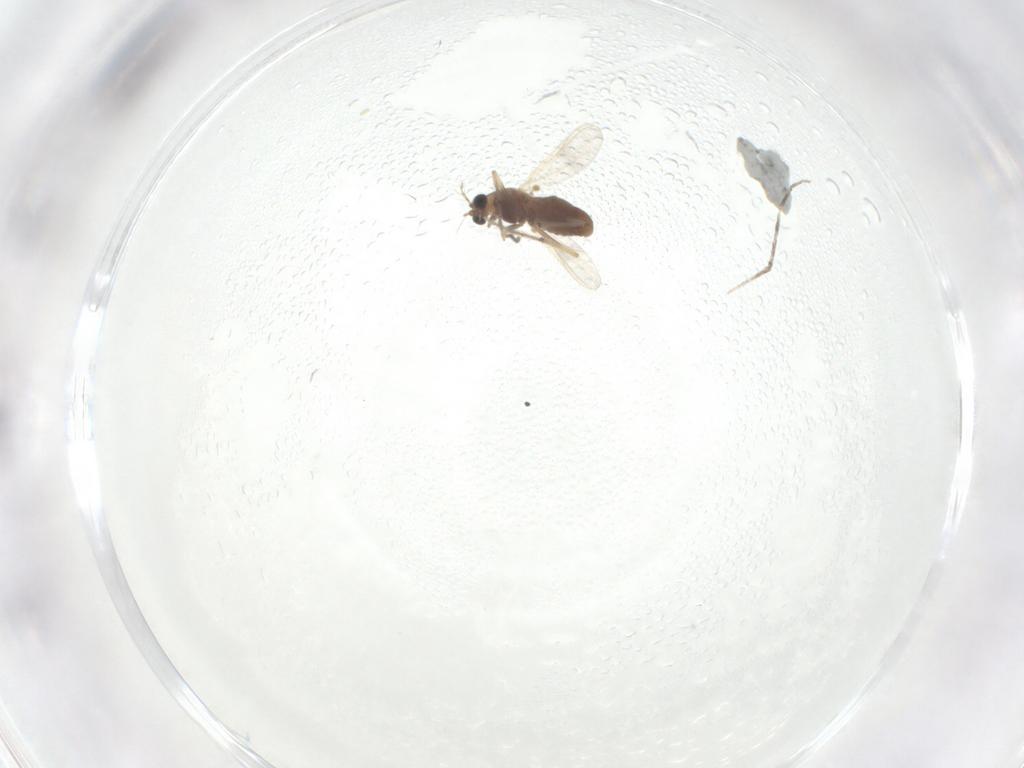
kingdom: Animalia
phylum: Arthropoda
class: Insecta
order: Diptera
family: Chironomidae
